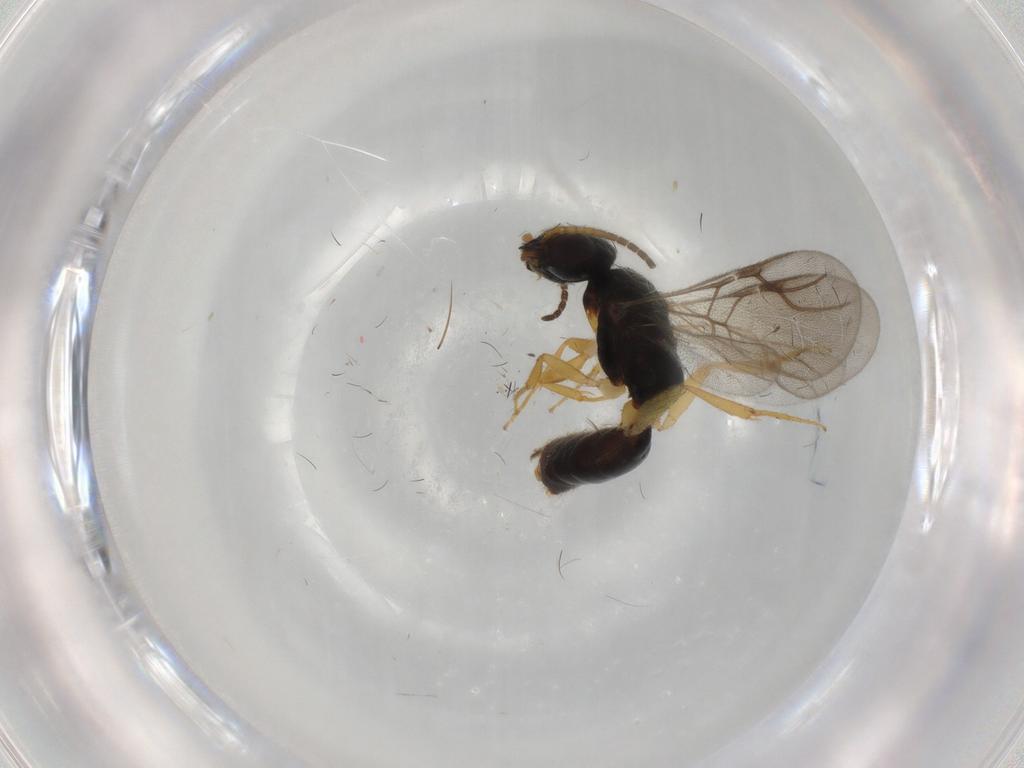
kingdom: Animalia
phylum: Arthropoda
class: Insecta
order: Hymenoptera
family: Bethylidae
